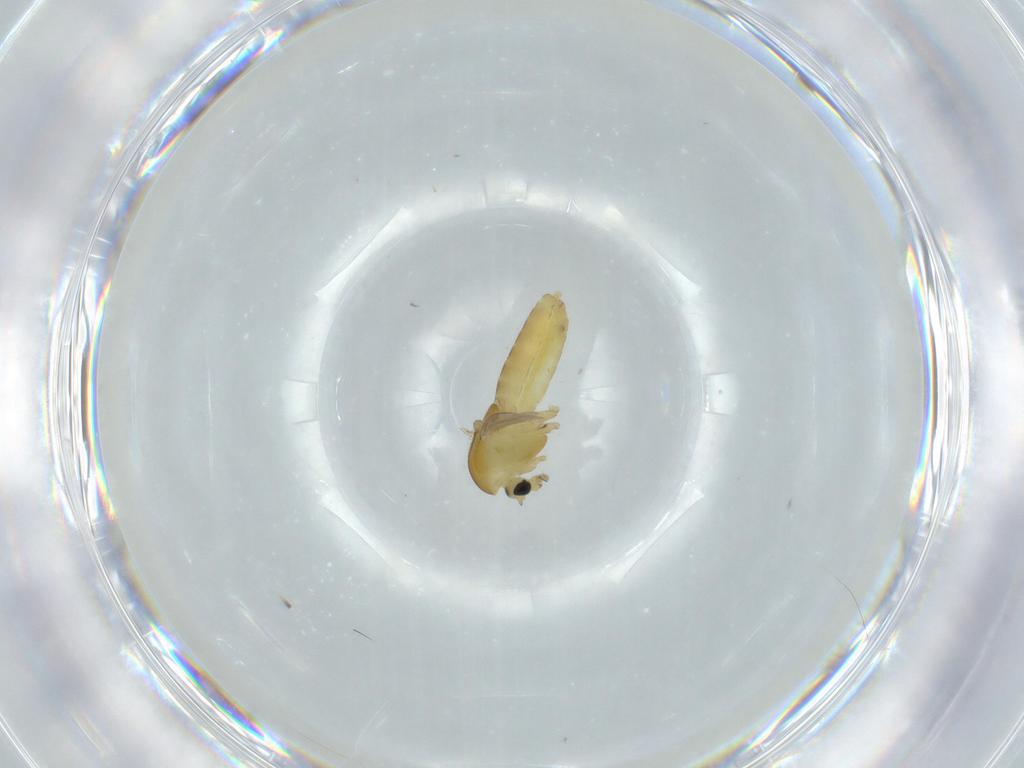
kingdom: Animalia
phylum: Arthropoda
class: Insecta
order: Diptera
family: Chironomidae
